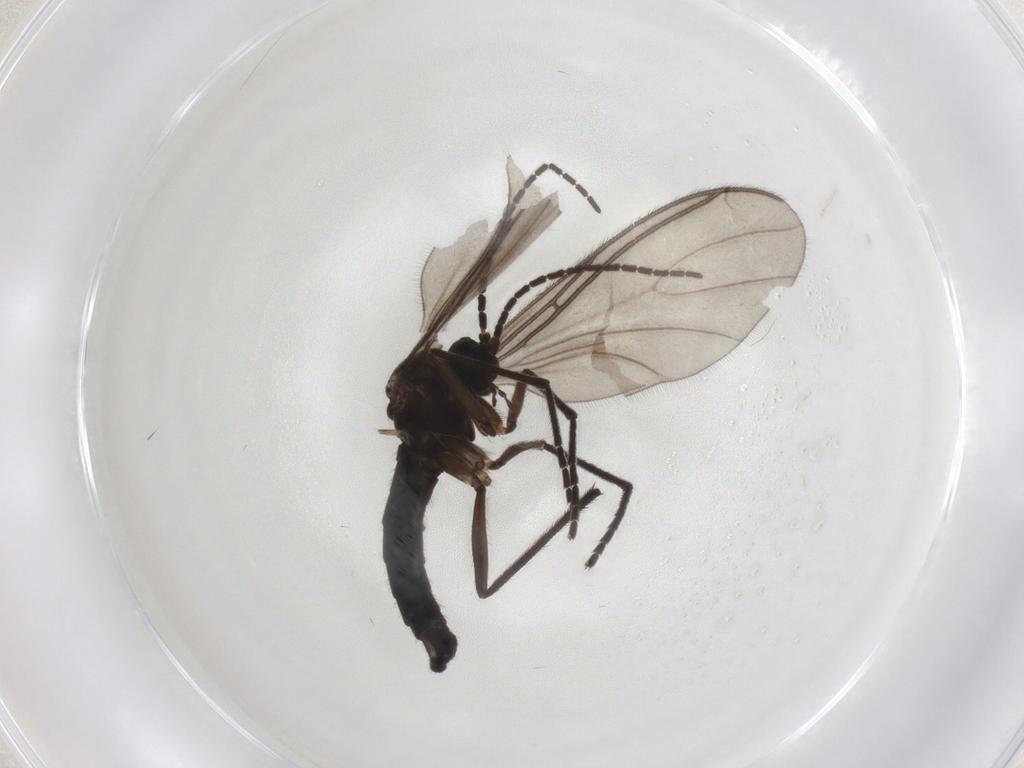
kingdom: Animalia
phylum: Arthropoda
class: Insecta
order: Diptera
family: Sciaridae
